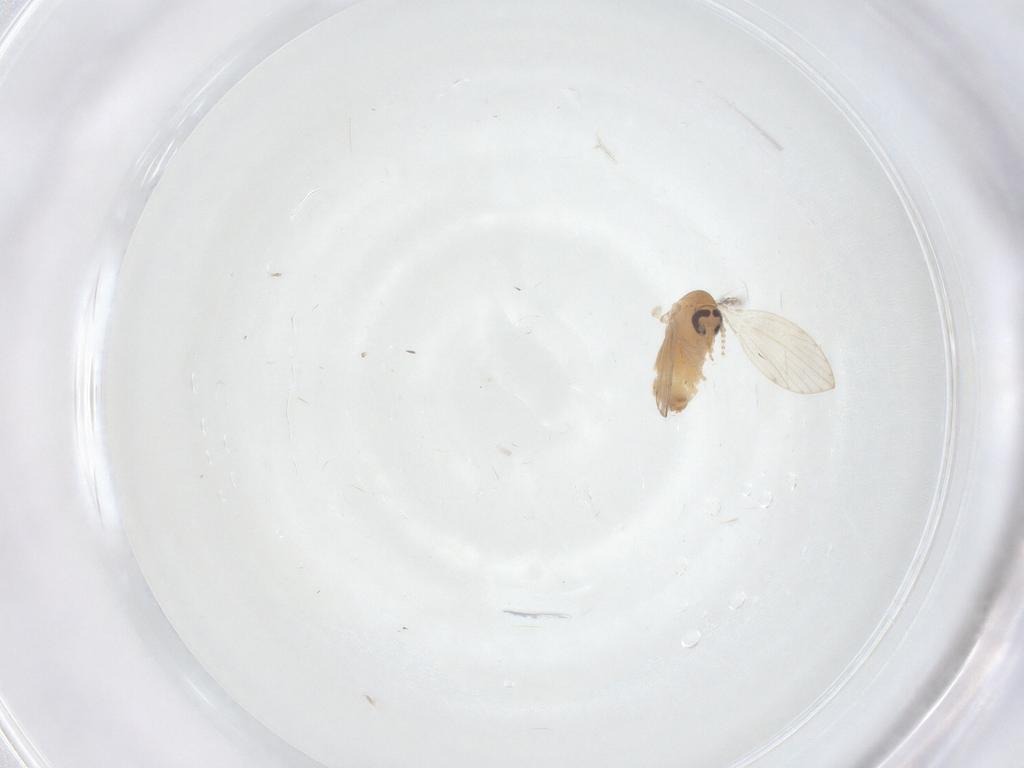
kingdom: Animalia
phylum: Arthropoda
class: Insecta
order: Diptera
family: Psychodidae
